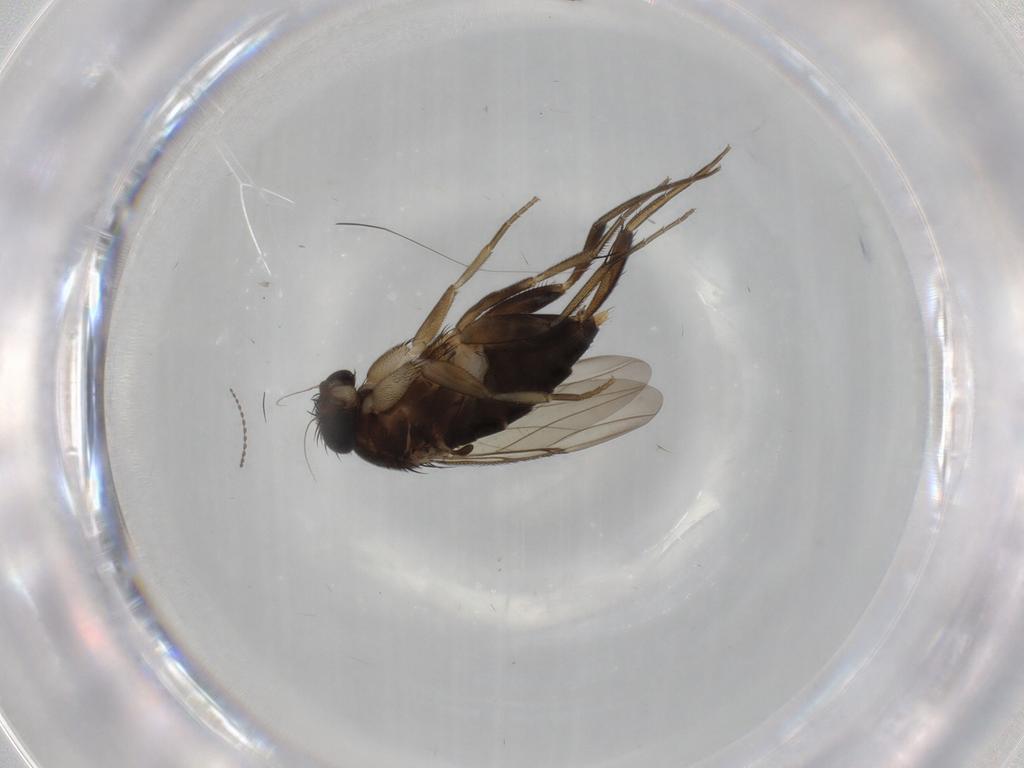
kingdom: Animalia
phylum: Arthropoda
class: Insecta
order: Diptera
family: Phoridae
